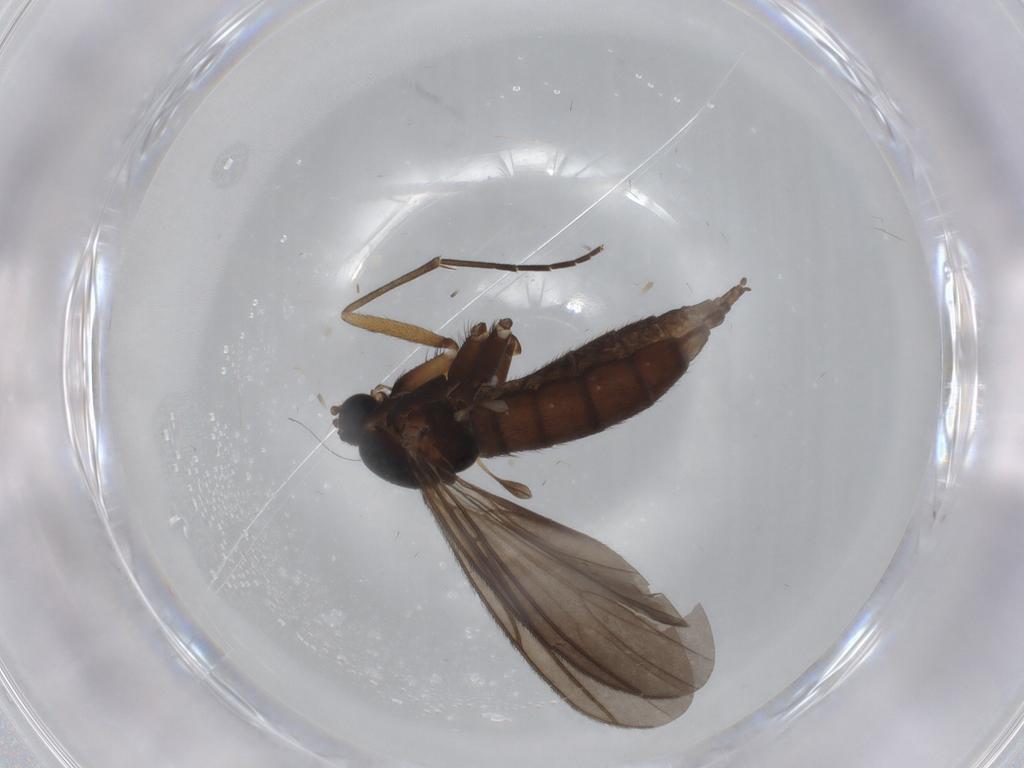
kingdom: Animalia
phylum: Arthropoda
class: Insecta
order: Diptera
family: Sciaridae
